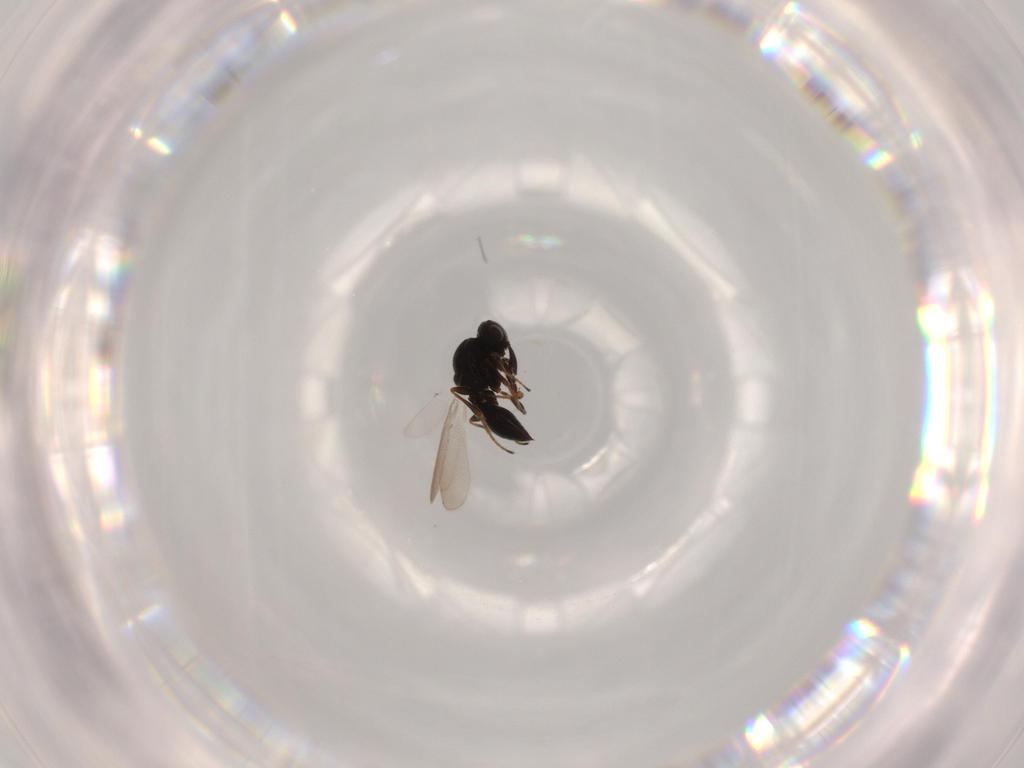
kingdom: Animalia
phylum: Arthropoda
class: Insecta
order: Hymenoptera
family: Platygastridae
